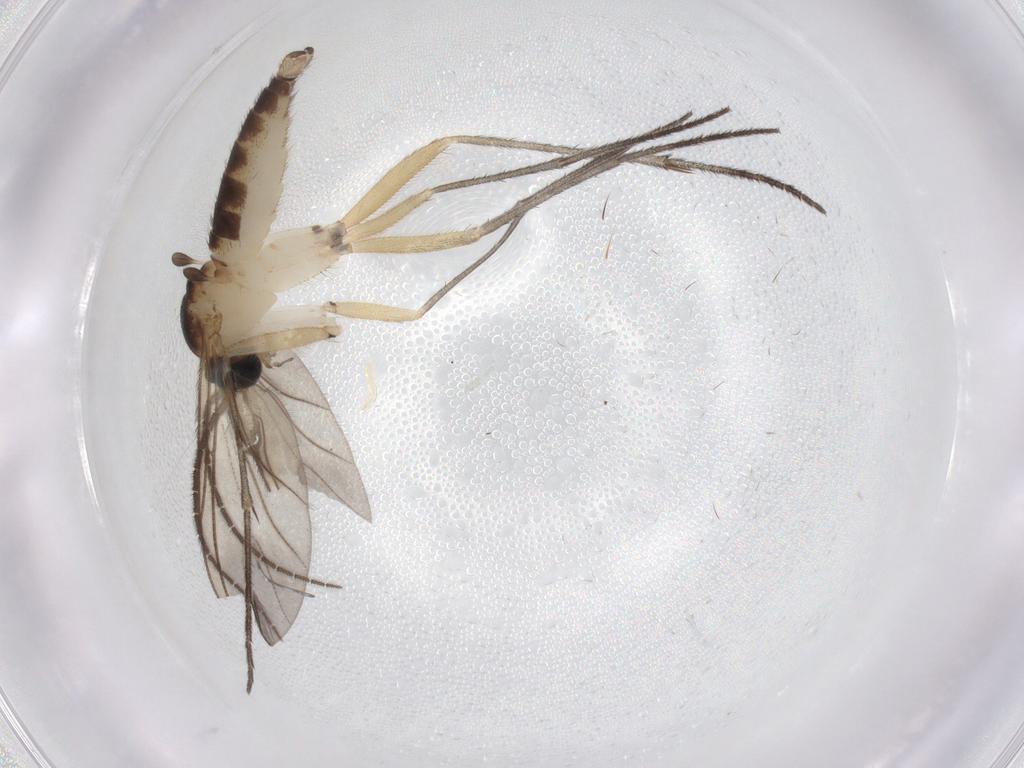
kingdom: Animalia
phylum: Arthropoda
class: Insecta
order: Diptera
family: Sciaridae
